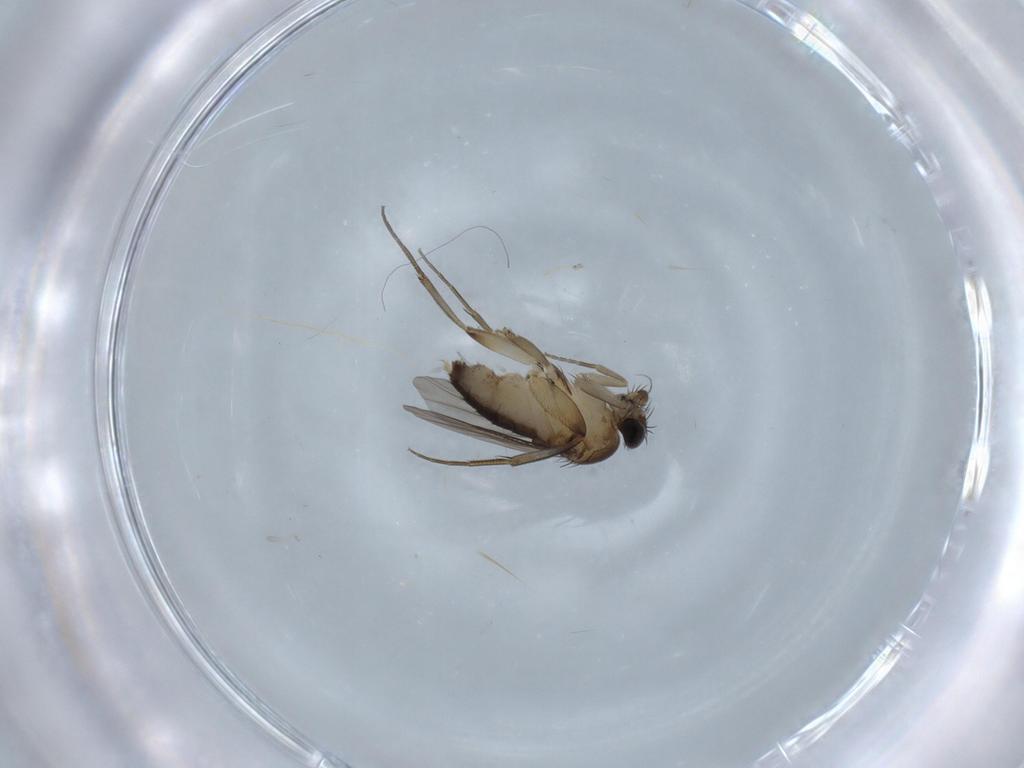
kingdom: Animalia
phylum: Arthropoda
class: Insecta
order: Diptera
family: Phoridae
